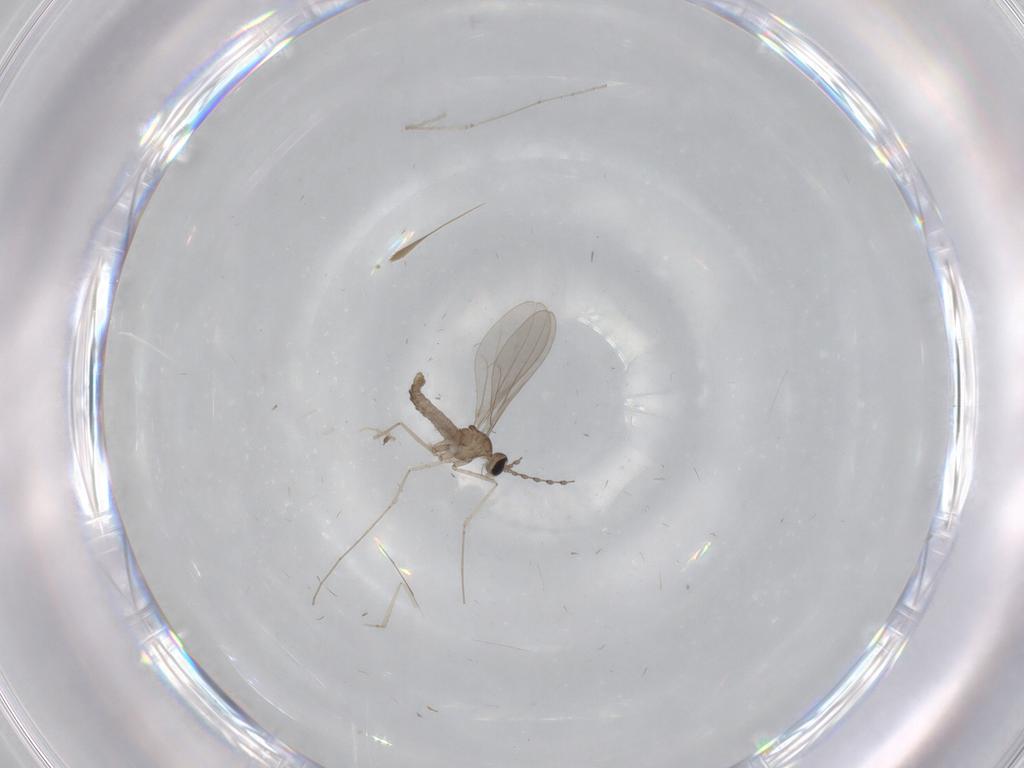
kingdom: Animalia
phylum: Arthropoda
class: Insecta
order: Diptera
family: Cecidomyiidae
